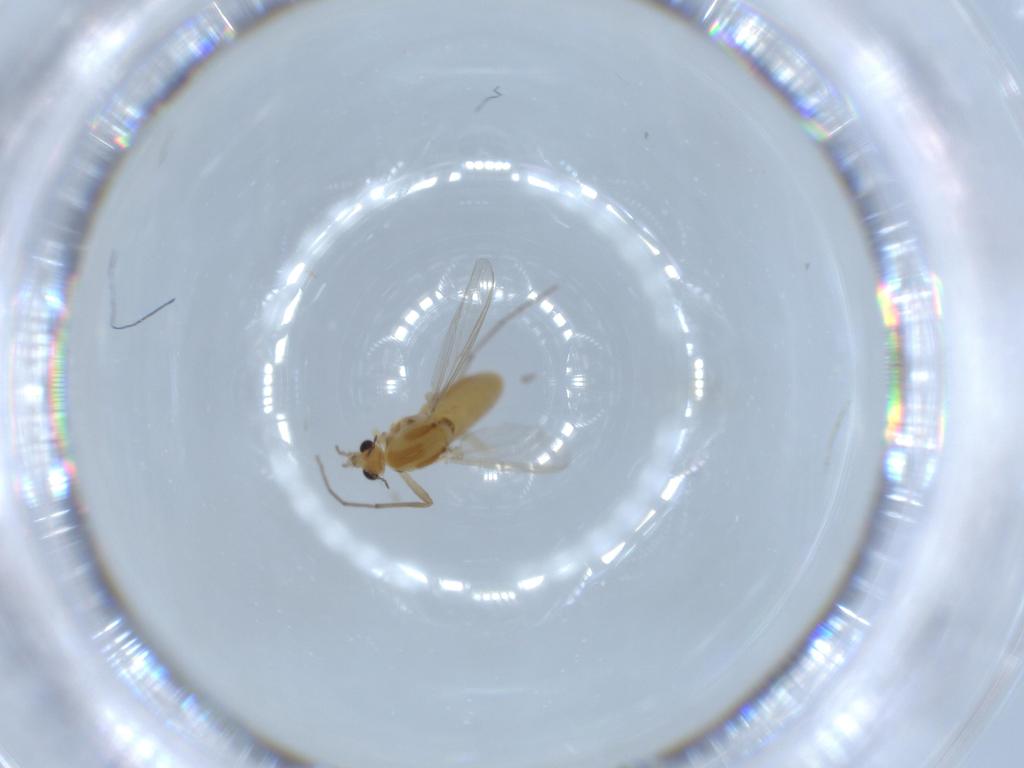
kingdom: Animalia
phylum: Arthropoda
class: Insecta
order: Diptera
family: Chironomidae
